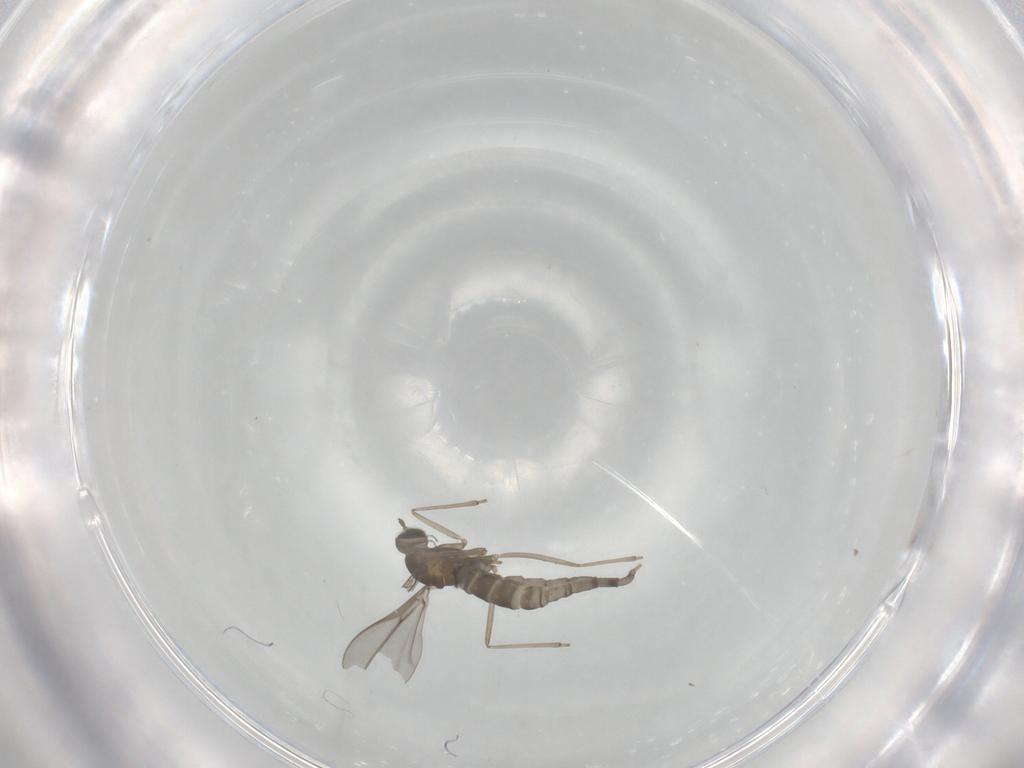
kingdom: Animalia
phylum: Arthropoda
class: Insecta
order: Diptera
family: Cecidomyiidae
